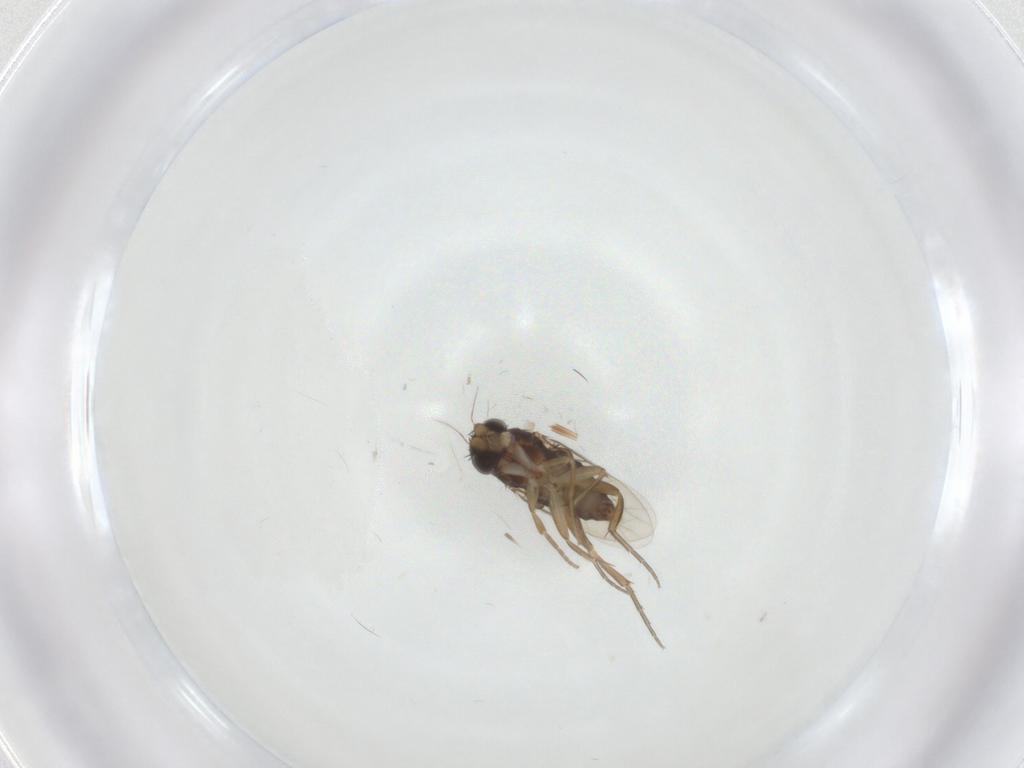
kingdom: Animalia
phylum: Arthropoda
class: Insecta
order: Diptera
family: Phoridae
